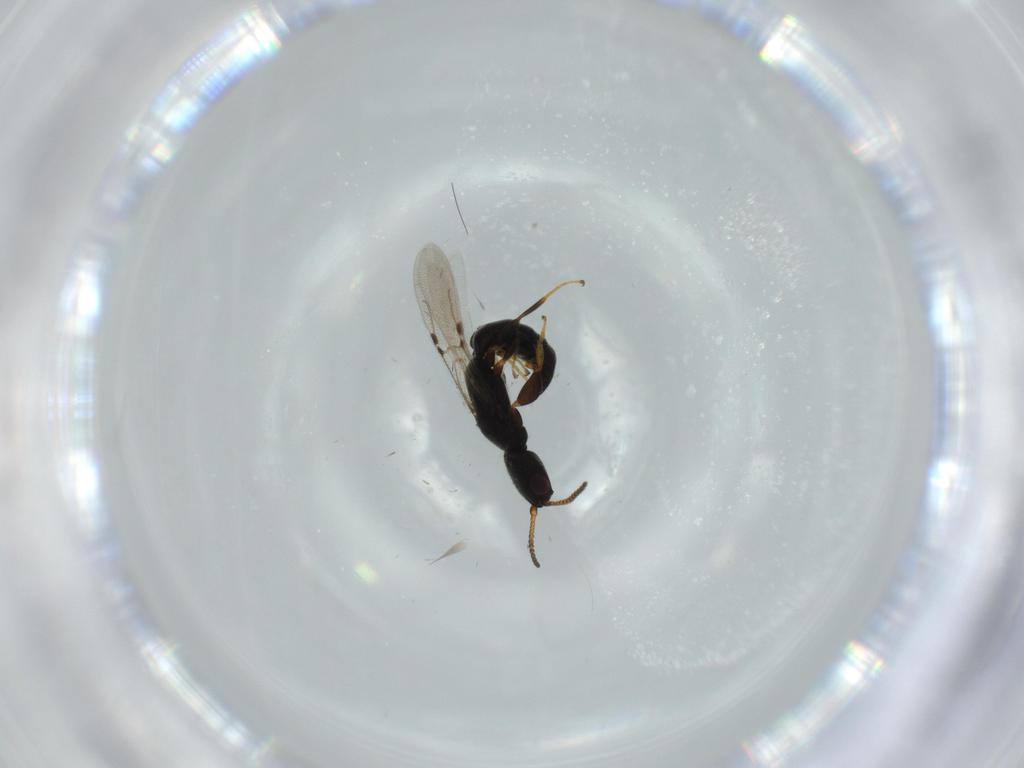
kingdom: Animalia
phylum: Arthropoda
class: Insecta
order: Hymenoptera
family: Bethylidae
